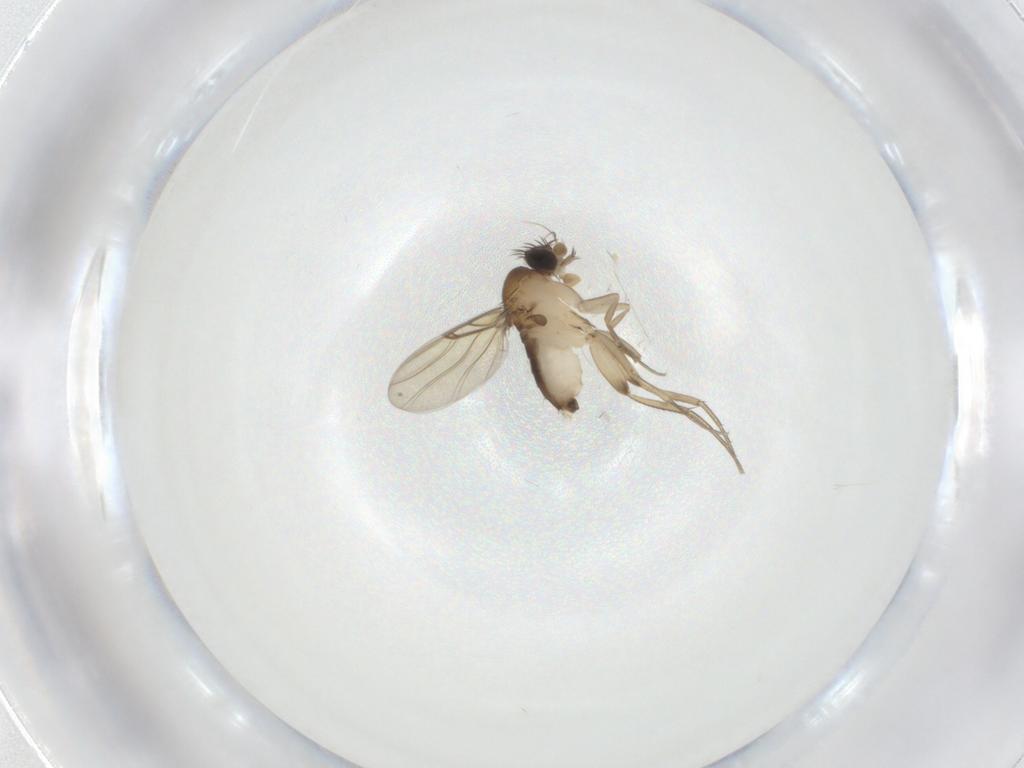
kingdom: Animalia
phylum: Arthropoda
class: Insecta
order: Diptera
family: Phoridae
